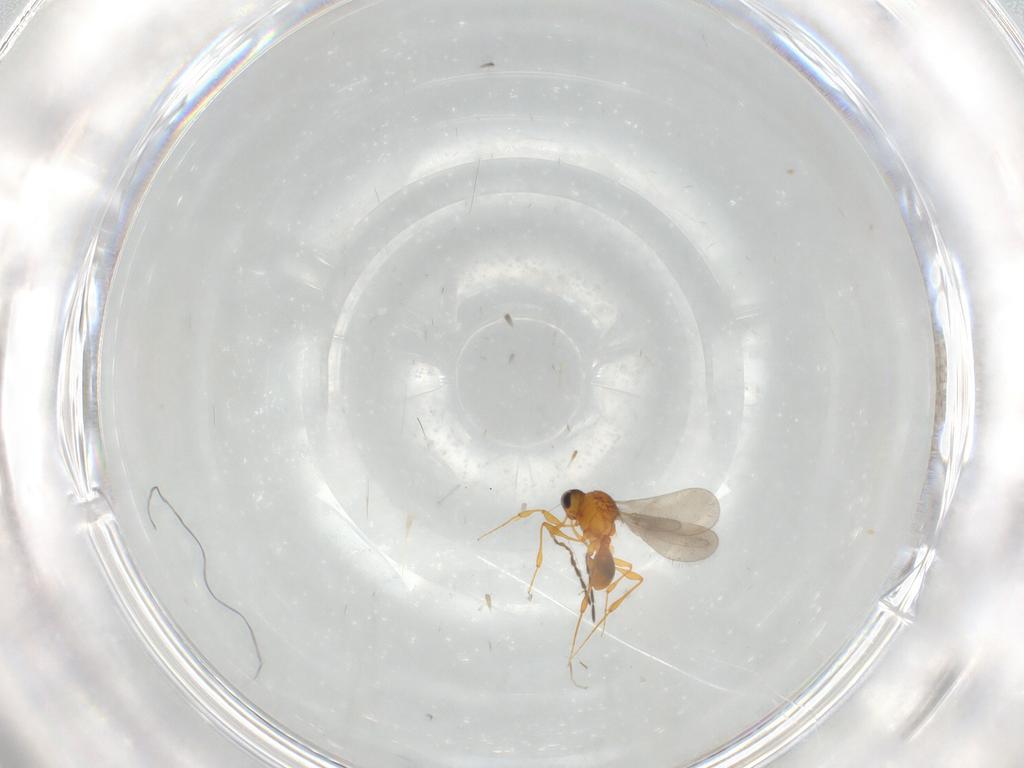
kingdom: Animalia
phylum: Arthropoda
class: Insecta
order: Hymenoptera
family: Platygastridae
